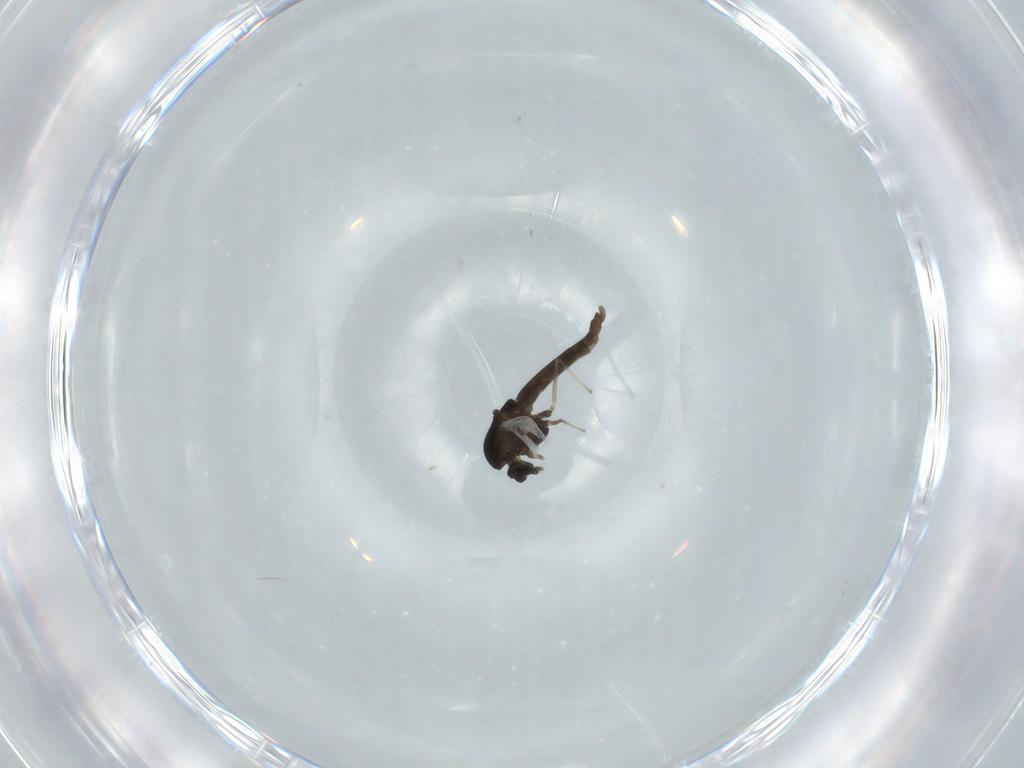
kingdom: Animalia
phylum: Arthropoda
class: Insecta
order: Diptera
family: Chironomidae
